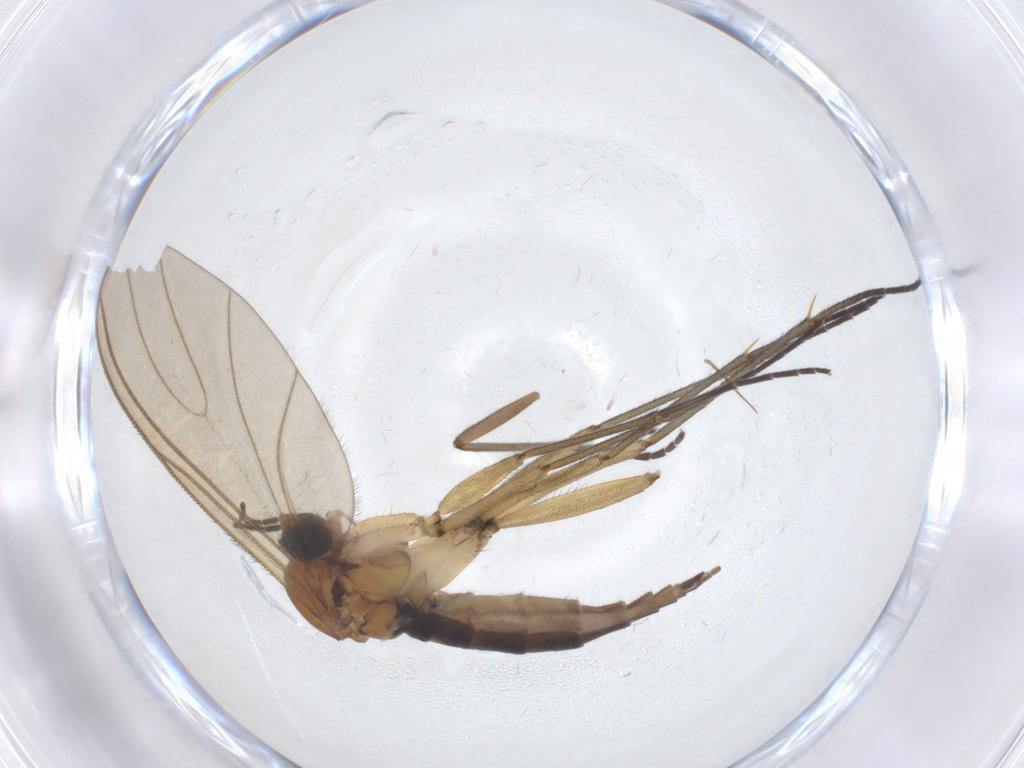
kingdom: Animalia
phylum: Arthropoda
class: Insecta
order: Diptera
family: Sciaridae
